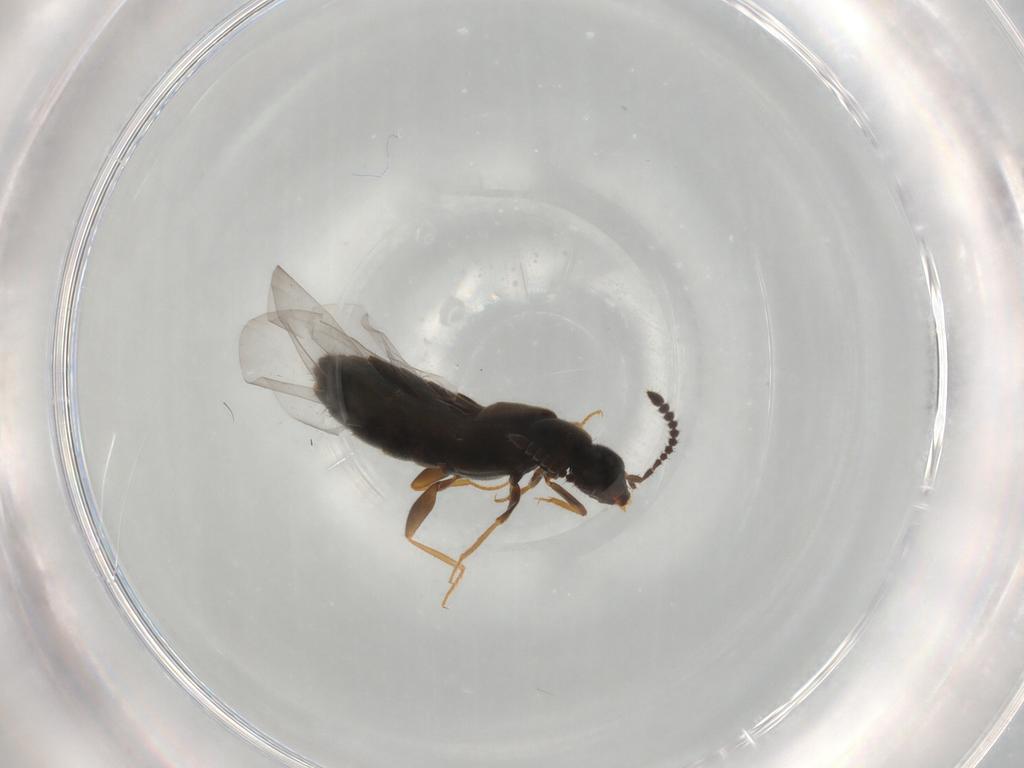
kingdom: Animalia
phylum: Arthropoda
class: Insecta
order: Coleoptera
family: Staphylinidae
